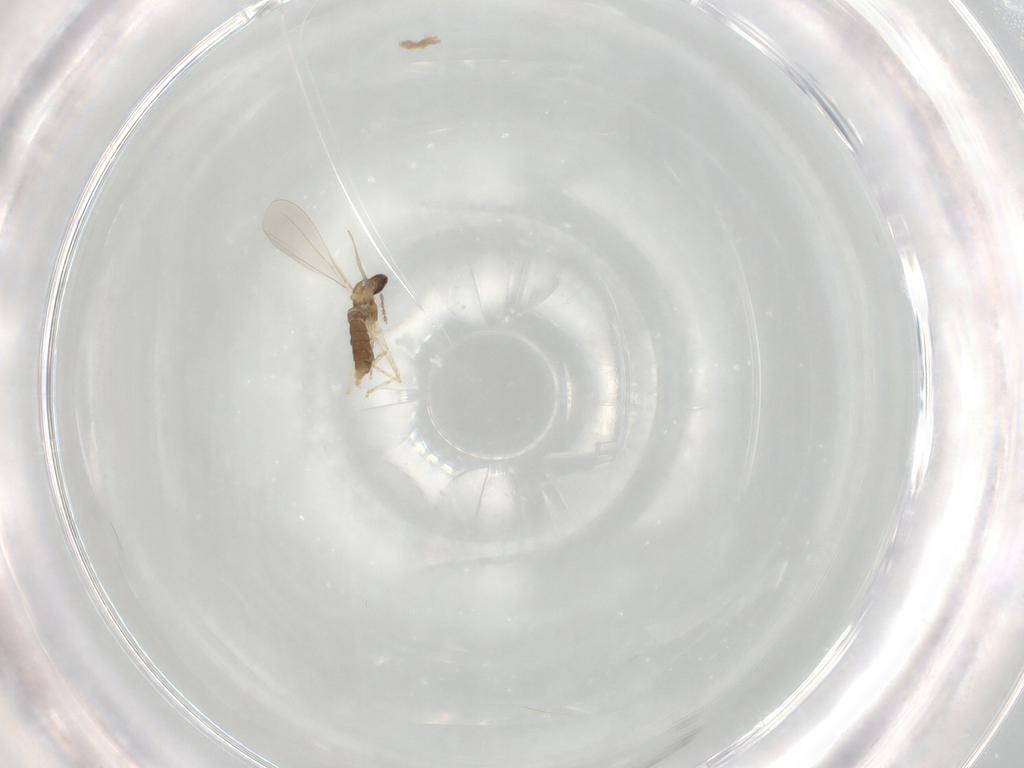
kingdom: Animalia
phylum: Arthropoda
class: Insecta
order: Diptera
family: Cecidomyiidae
